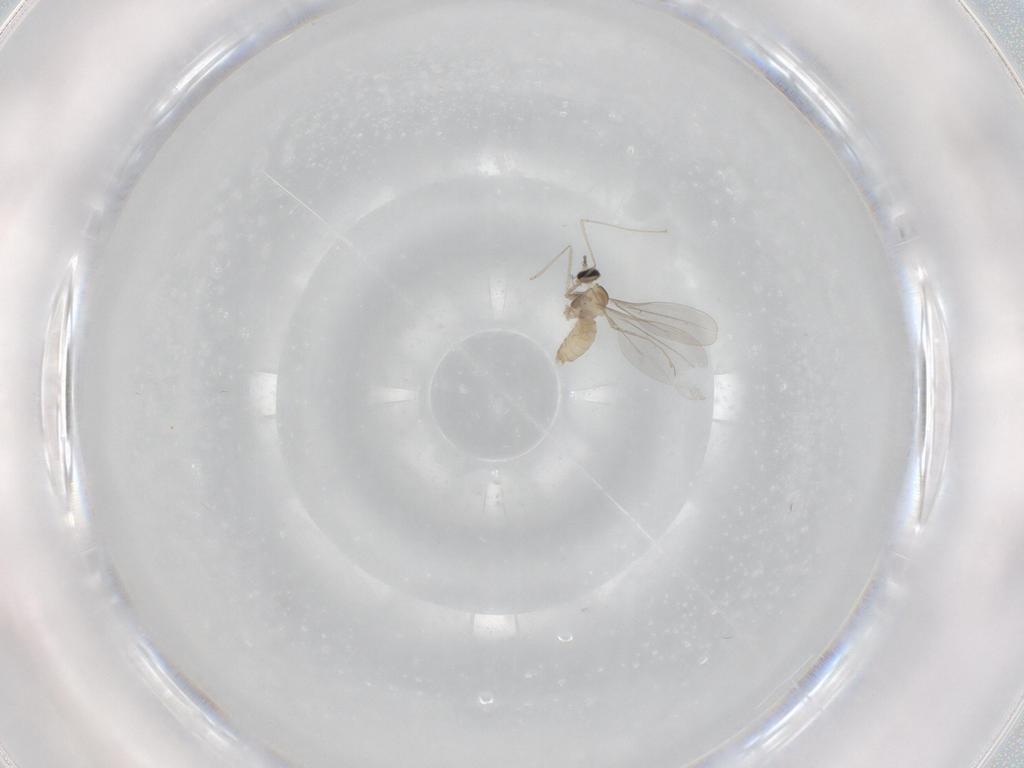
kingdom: Animalia
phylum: Arthropoda
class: Insecta
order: Diptera
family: Cecidomyiidae
